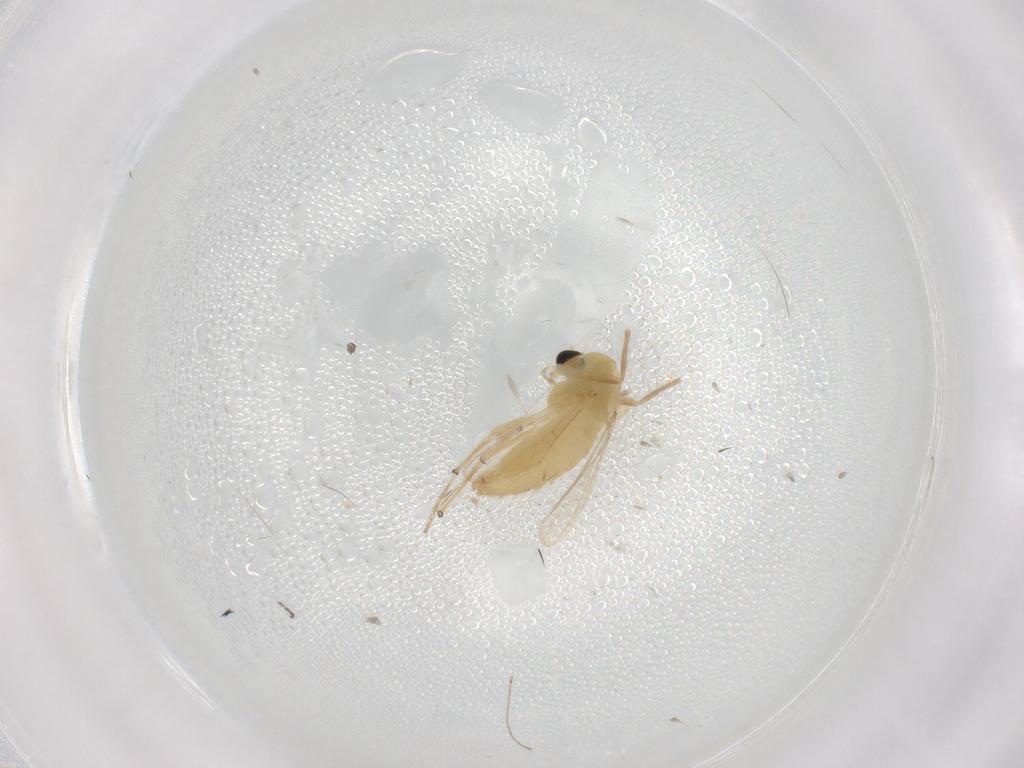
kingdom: Animalia
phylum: Arthropoda
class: Insecta
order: Diptera
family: Chironomidae
